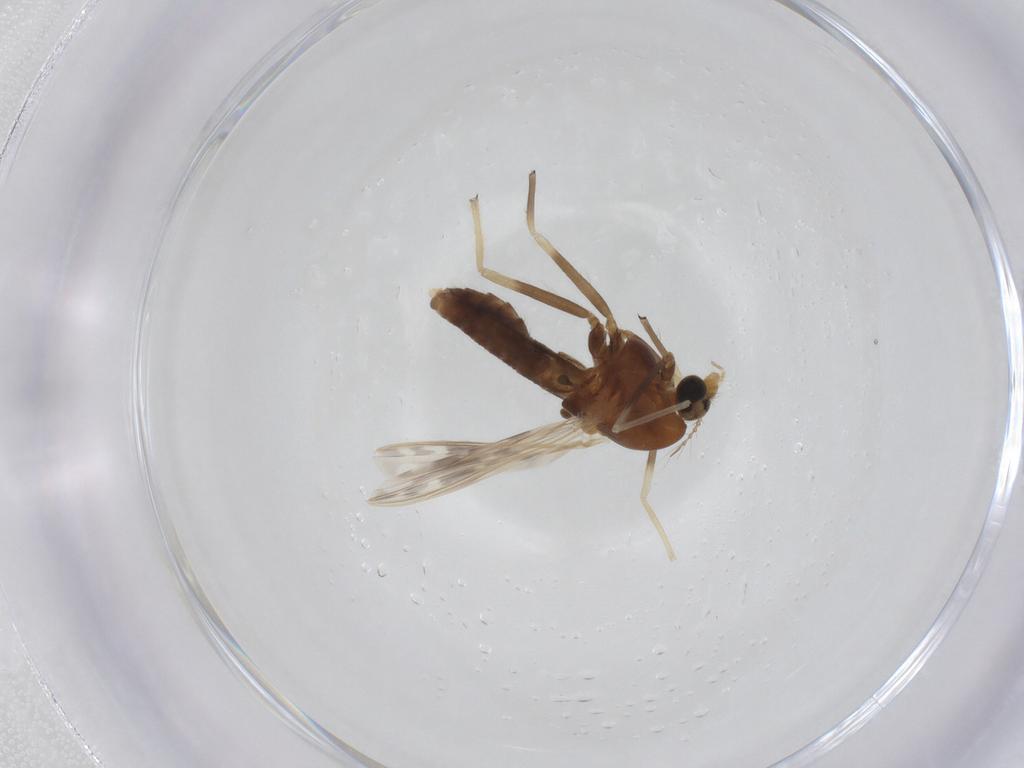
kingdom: Animalia
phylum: Arthropoda
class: Insecta
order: Diptera
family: Chironomidae
